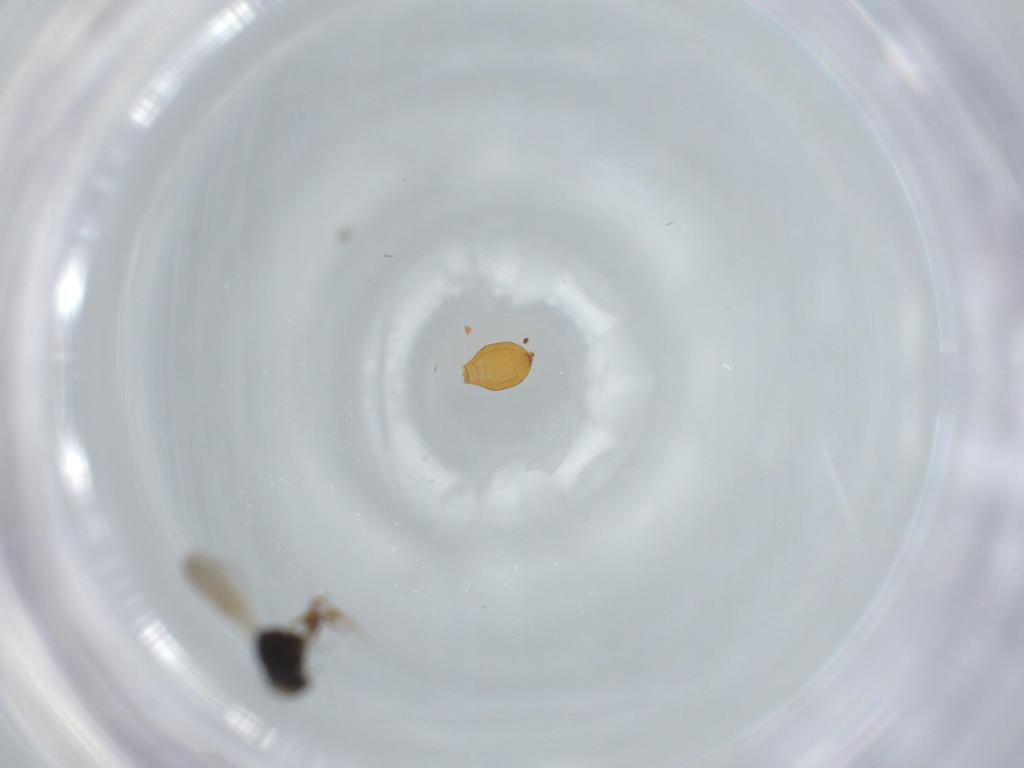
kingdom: Animalia
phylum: Arthropoda
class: Insecta
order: Hymenoptera
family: Scelionidae
